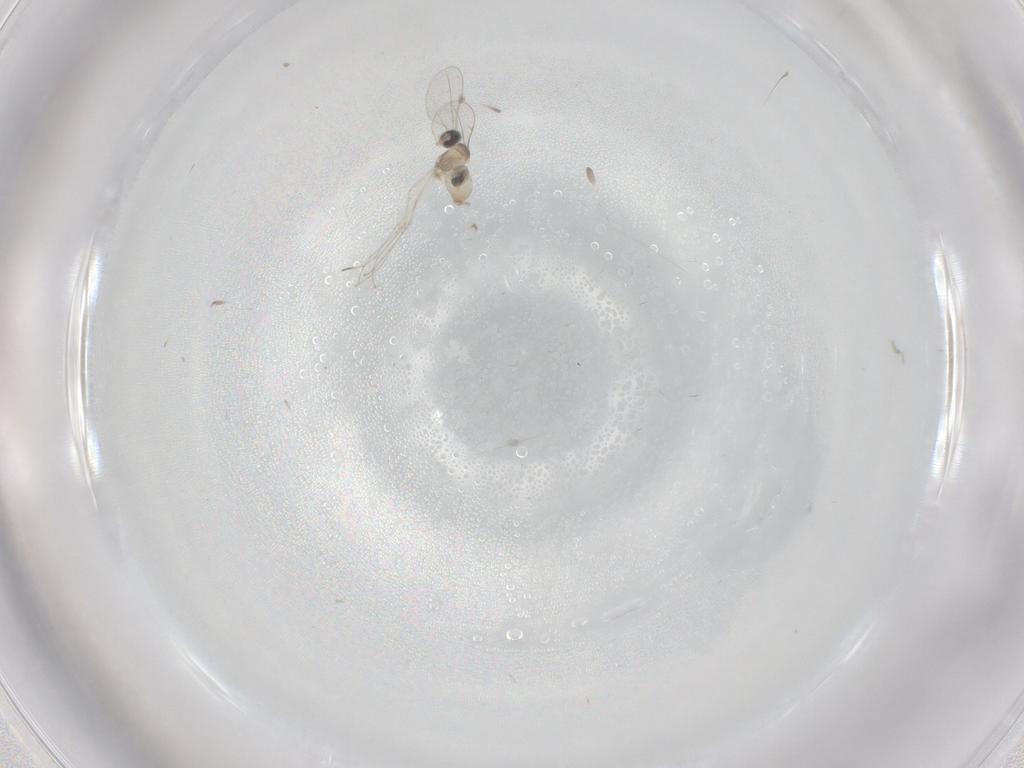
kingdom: Animalia
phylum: Arthropoda
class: Insecta
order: Diptera
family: Cecidomyiidae
